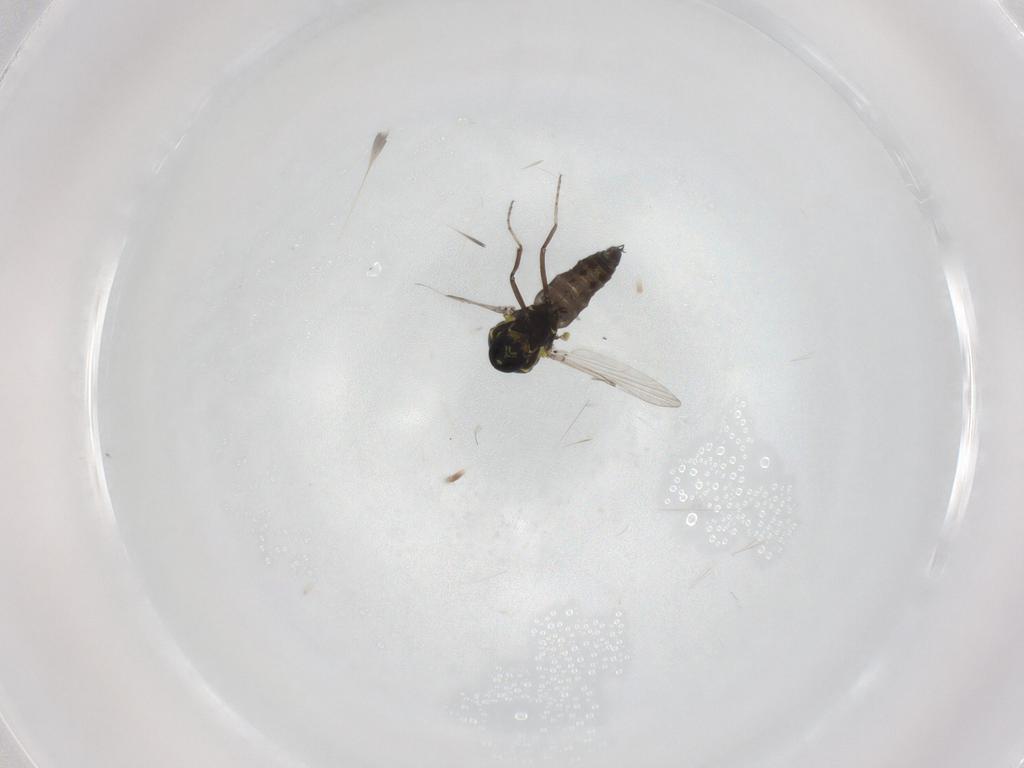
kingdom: Animalia
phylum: Arthropoda
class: Insecta
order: Diptera
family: Ceratopogonidae
